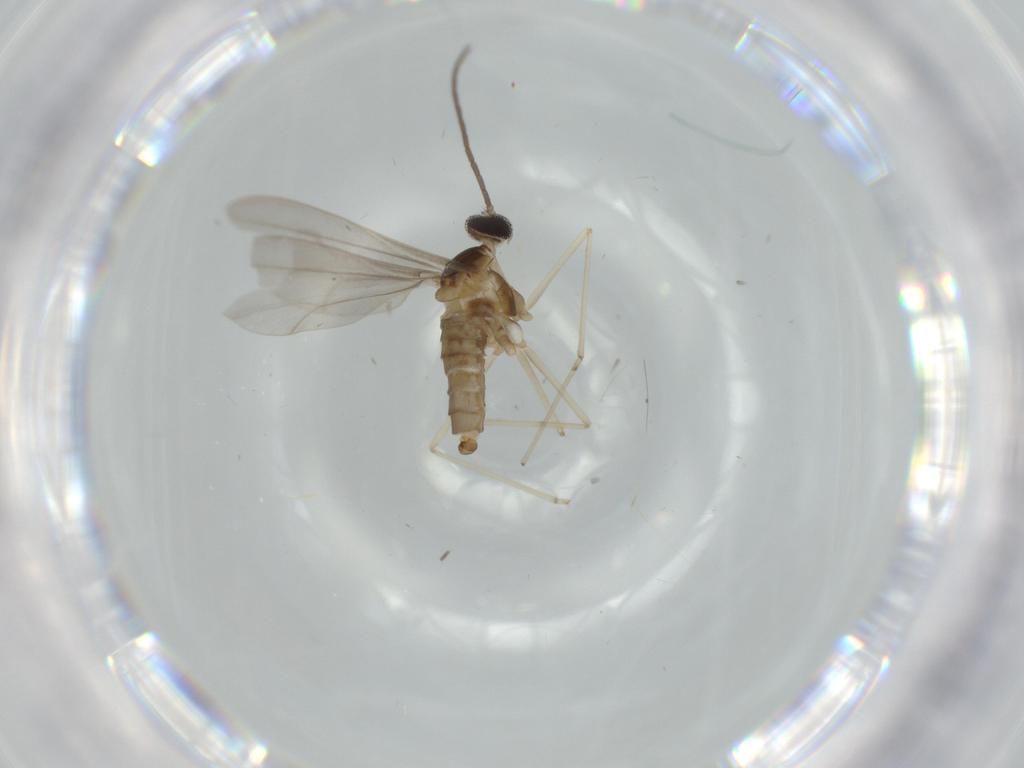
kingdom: Animalia
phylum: Arthropoda
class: Insecta
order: Diptera
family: Cecidomyiidae
